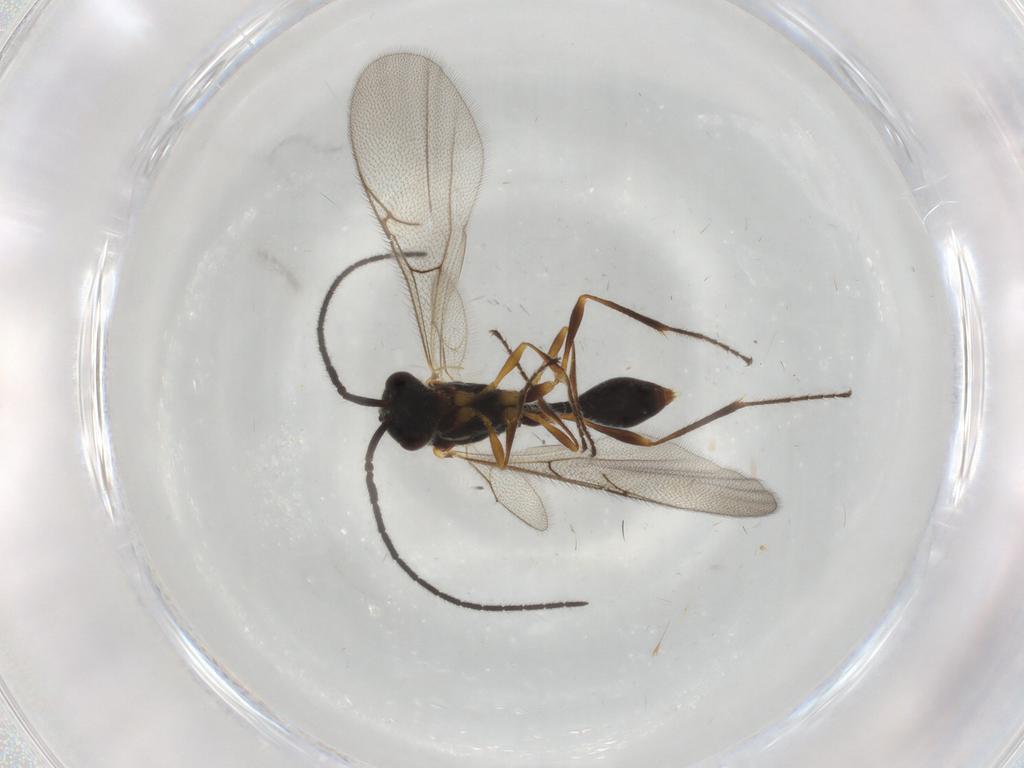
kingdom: Animalia
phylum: Arthropoda
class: Insecta
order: Hymenoptera
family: Diapriidae
